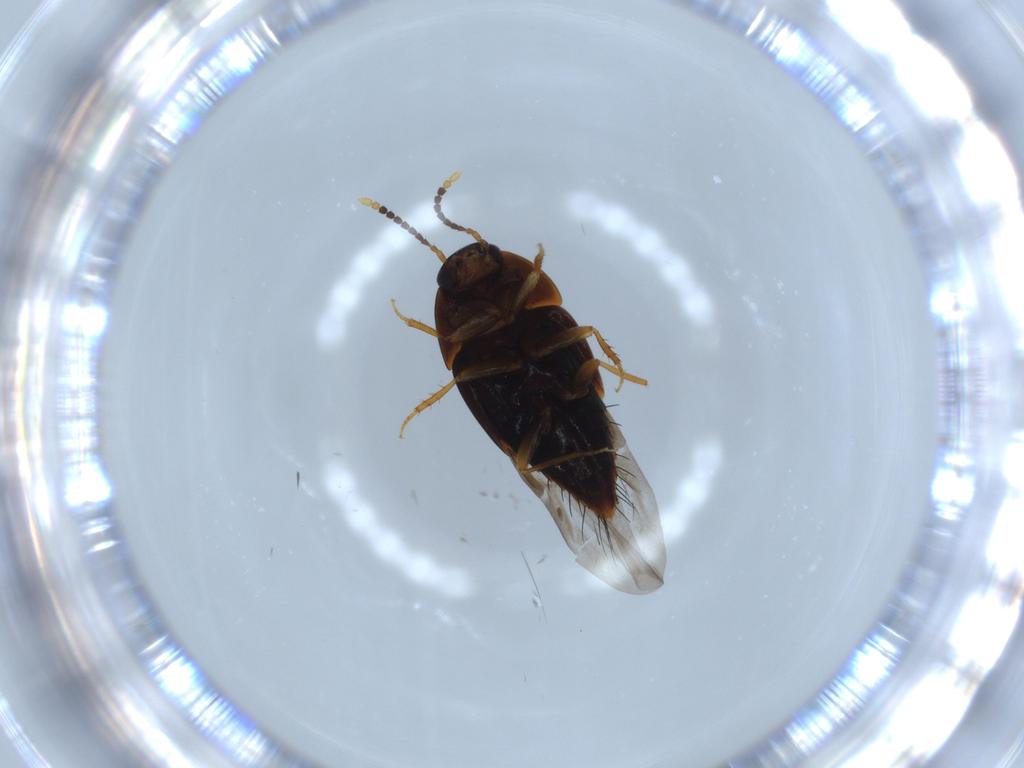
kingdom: Animalia
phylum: Arthropoda
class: Insecta
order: Coleoptera
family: Staphylinidae
